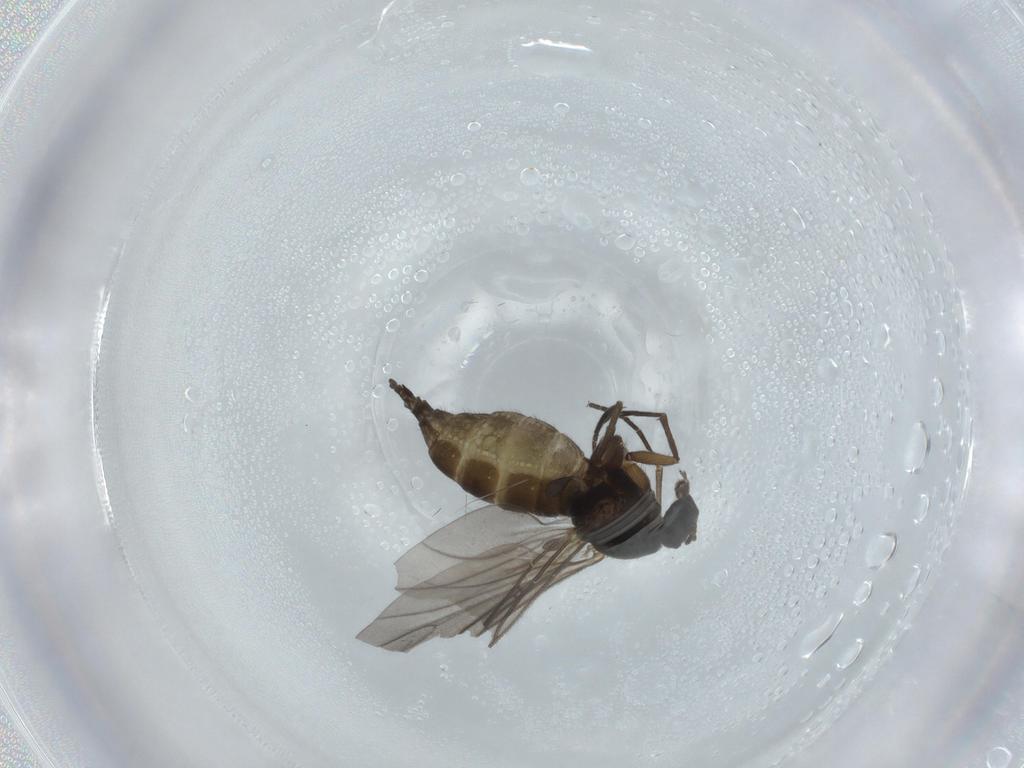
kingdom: Animalia
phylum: Arthropoda
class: Insecta
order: Diptera
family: Sciaridae
